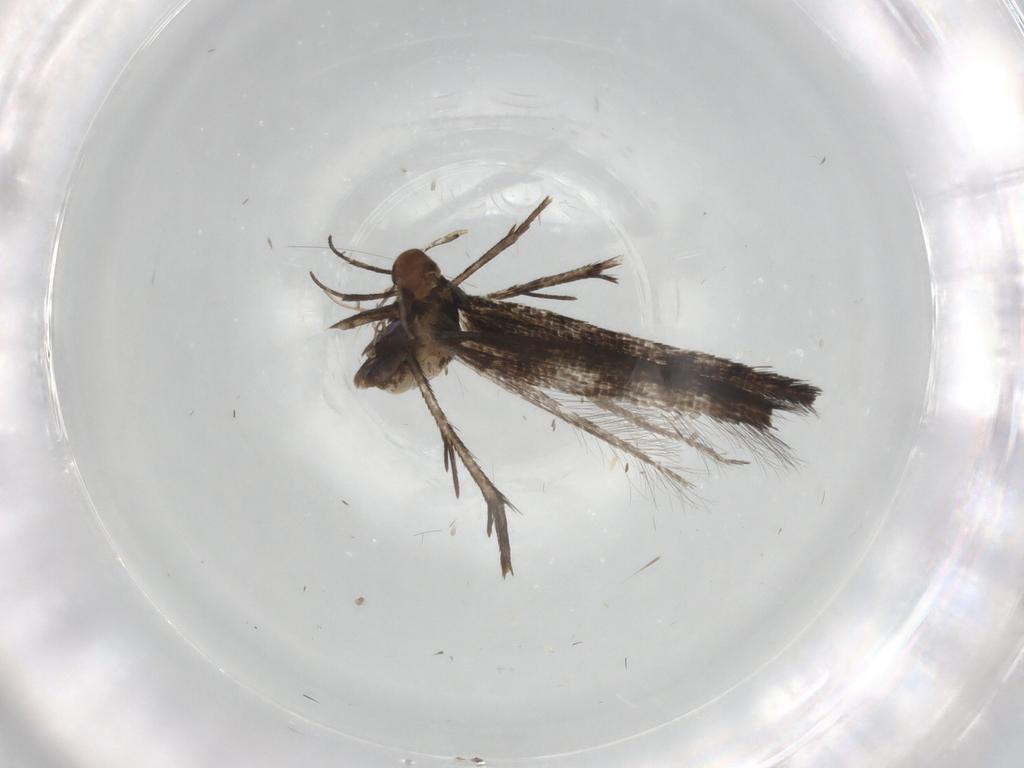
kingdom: Animalia
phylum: Arthropoda
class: Insecta
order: Lepidoptera
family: Cosmopterigidae
